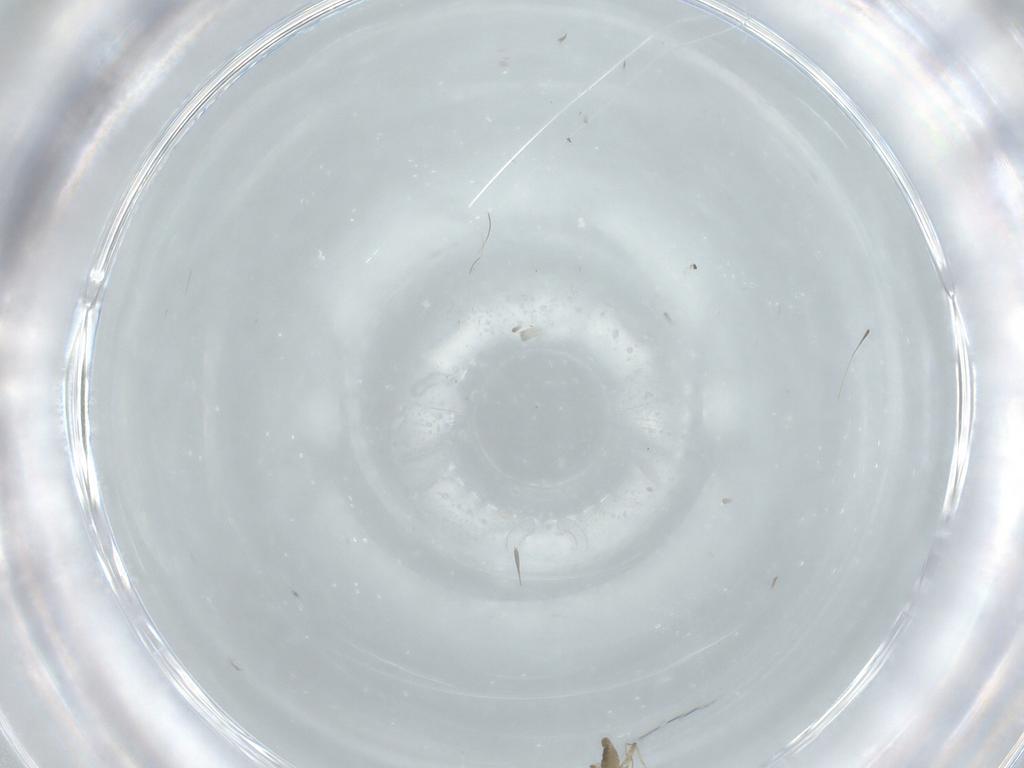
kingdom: Animalia
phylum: Arthropoda
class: Insecta
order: Diptera
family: Ceratopogonidae
